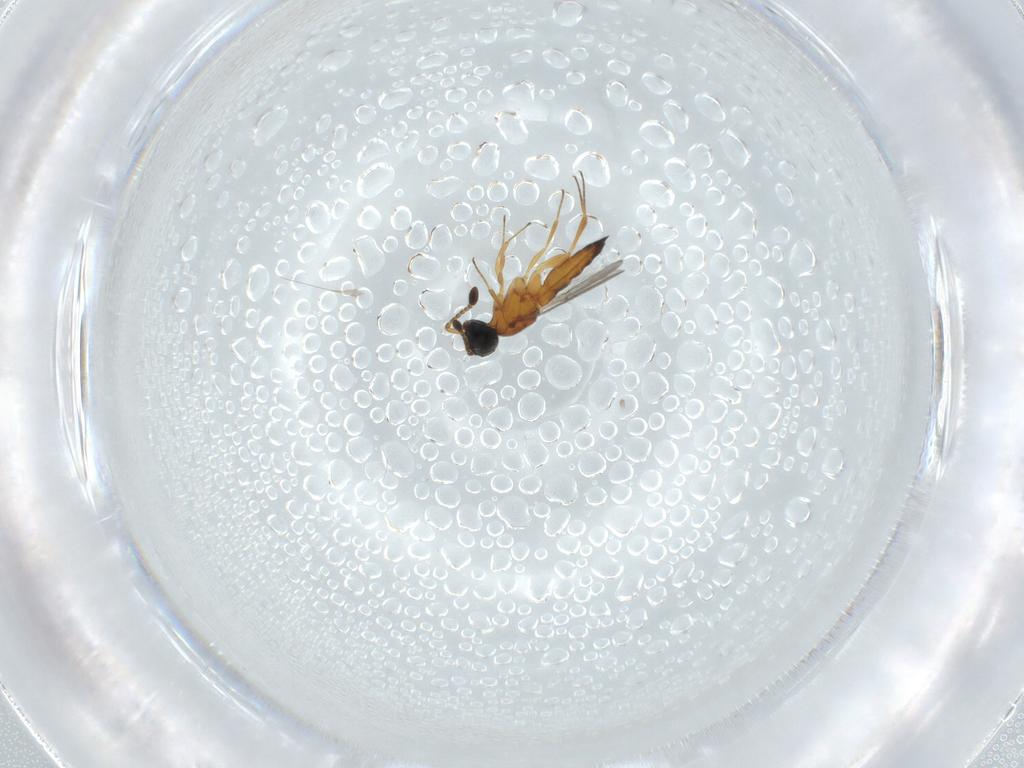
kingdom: Animalia
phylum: Arthropoda
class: Insecta
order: Hymenoptera
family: Scelionidae
